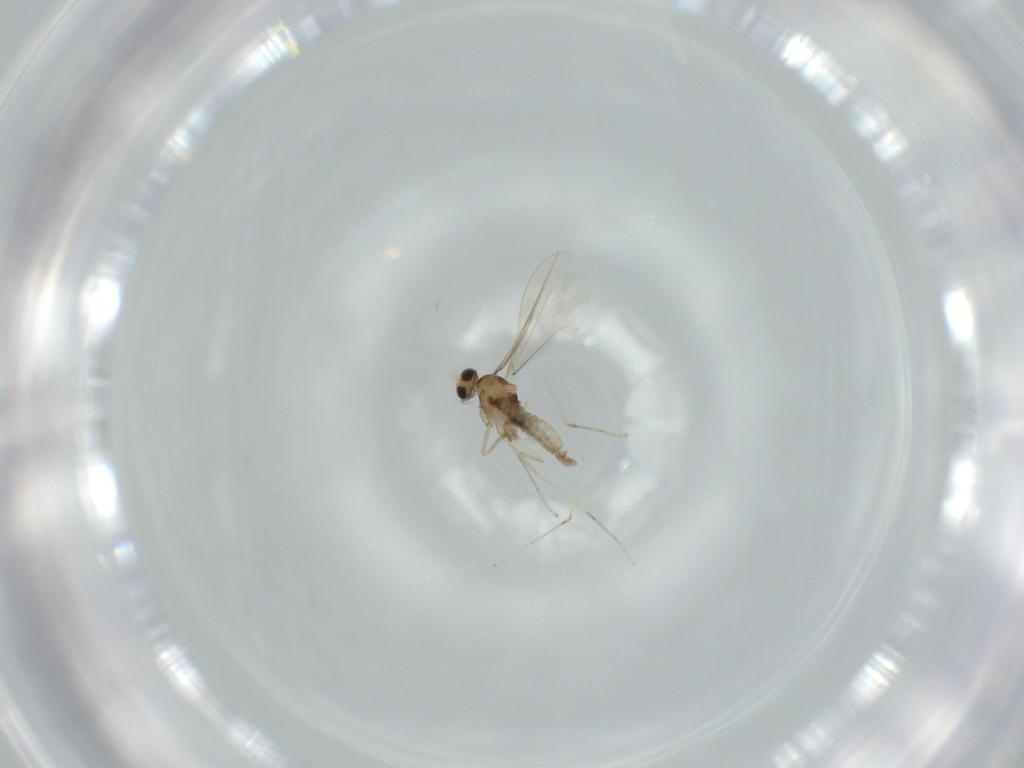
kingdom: Animalia
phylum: Arthropoda
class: Insecta
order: Diptera
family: Cecidomyiidae
